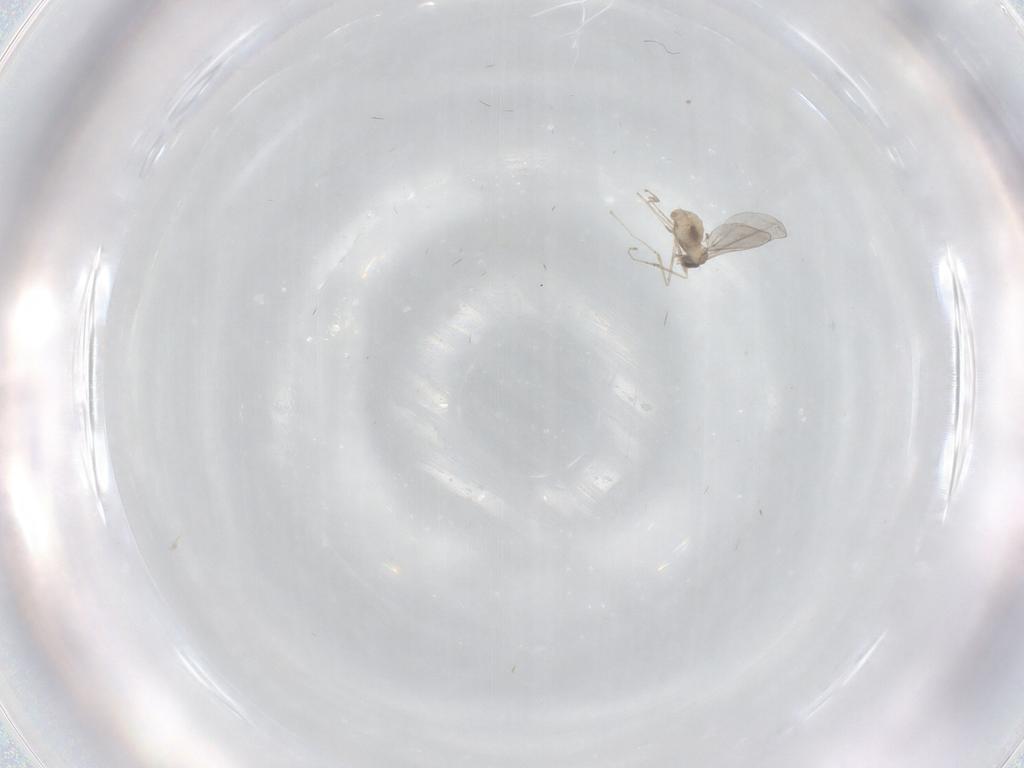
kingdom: Animalia
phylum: Arthropoda
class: Insecta
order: Diptera
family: Cecidomyiidae
